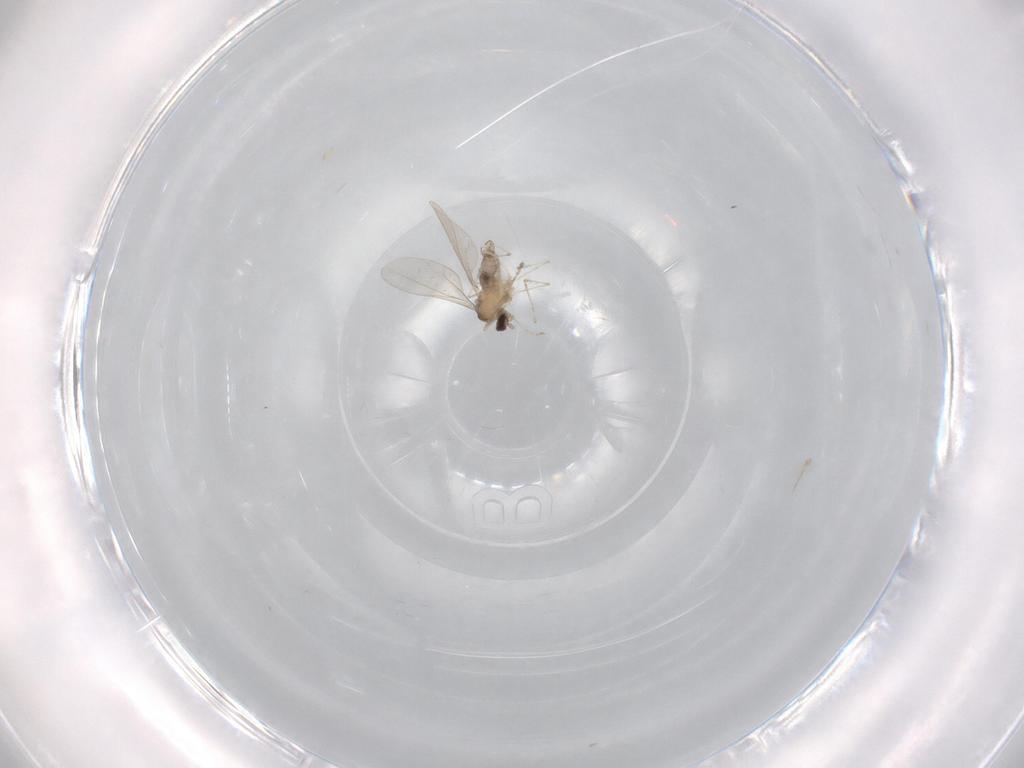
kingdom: Animalia
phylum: Arthropoda
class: Insecta
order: Diptera
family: Cecidomyiidae
